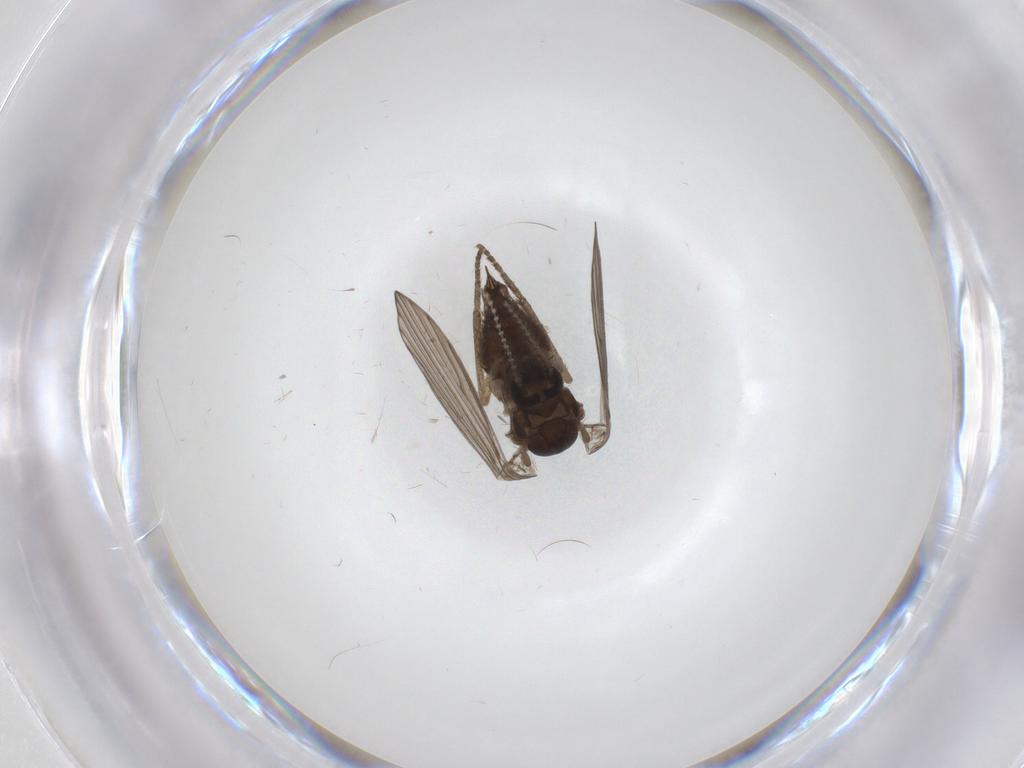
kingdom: Animalia
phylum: Arthropoda
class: Insecta
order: Diptera
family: Psychodidae
